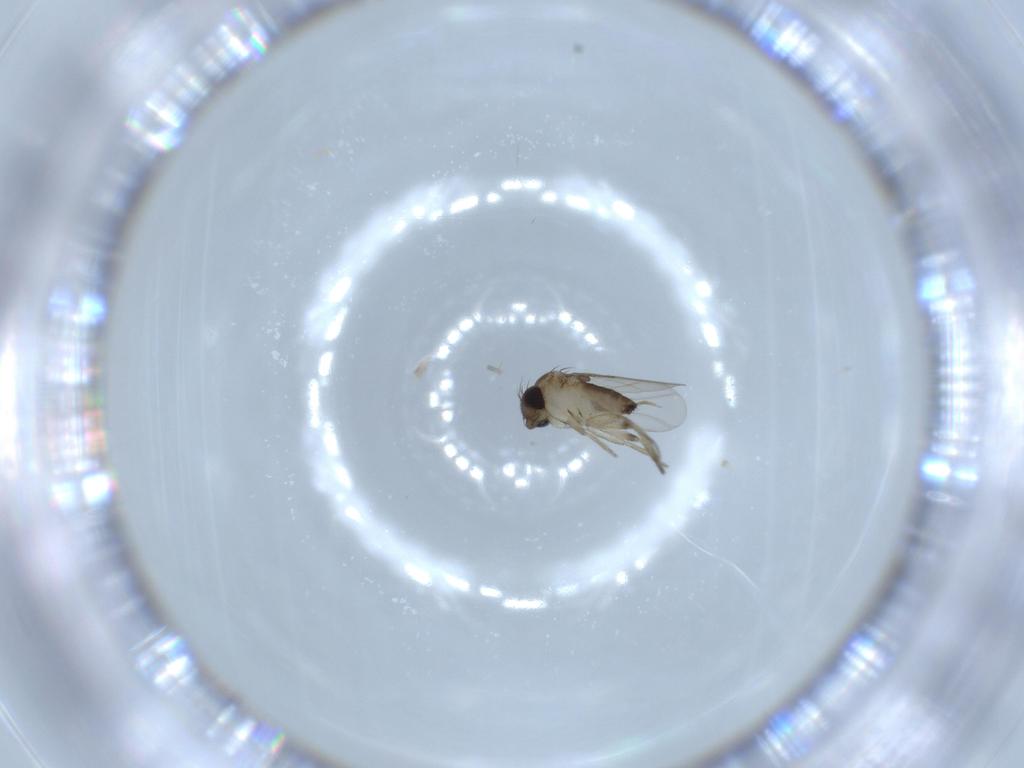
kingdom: Animalia
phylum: Arthropoda
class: Insecta
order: Diptera
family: Phoridae
